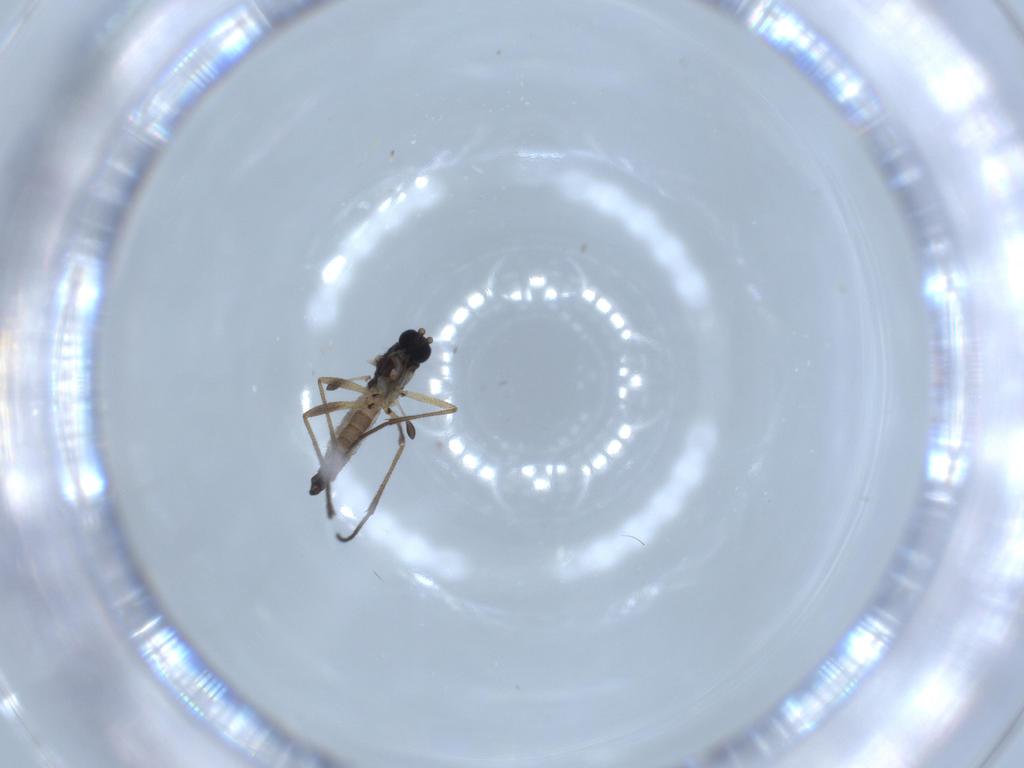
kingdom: Animalia
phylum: Arthropoda
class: Insecta
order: Diptera
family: Sciaridae
